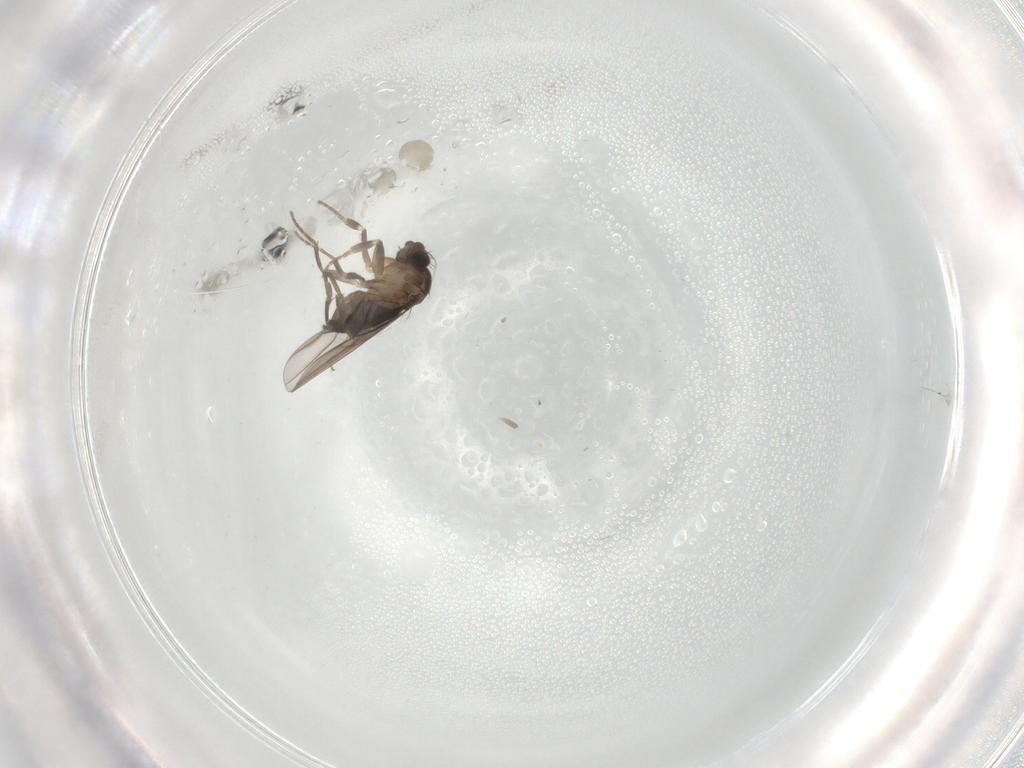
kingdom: Animalia
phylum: Arthropoda
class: Insecta
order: Diptera
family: Phoridae
